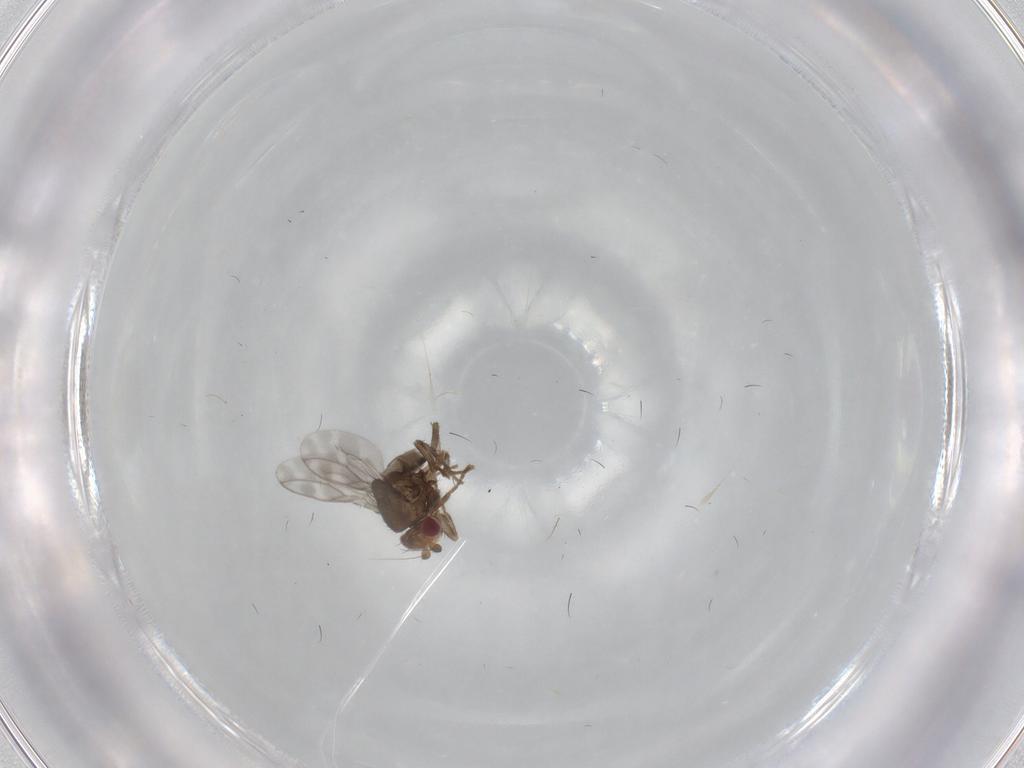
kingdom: Animalia
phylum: Arthropoda
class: Insecta
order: Diptera
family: Sphaeroceridae
